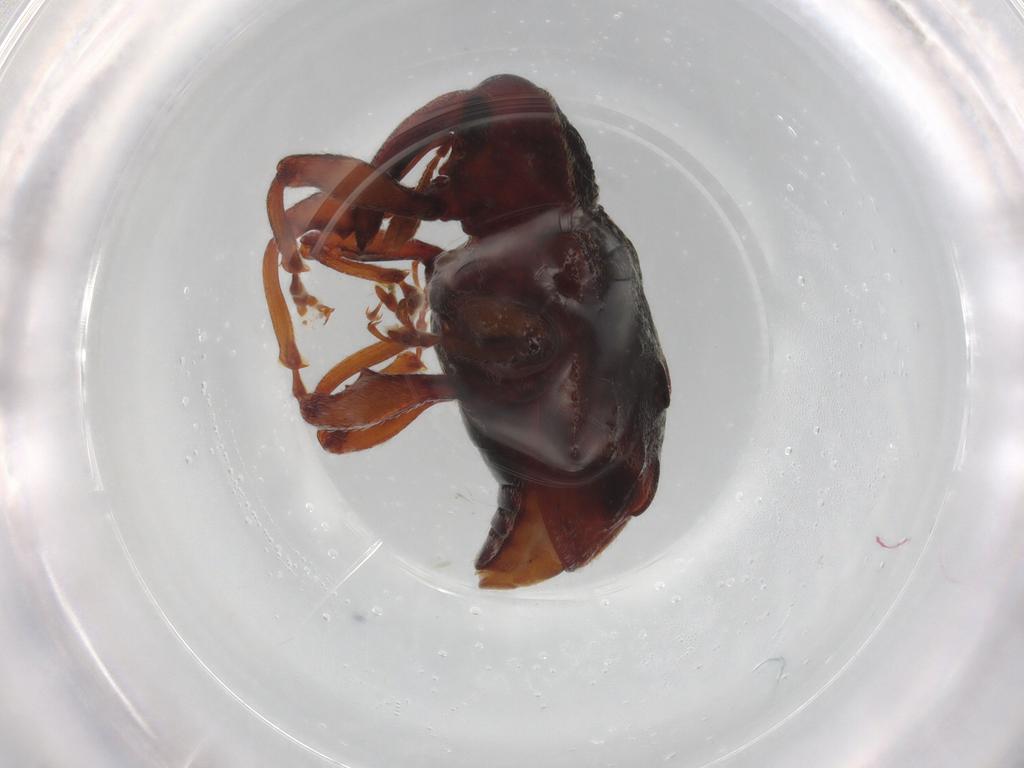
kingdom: Animalia
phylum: Arthropoda
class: Insecta
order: Coleoptera
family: Curculionidae
